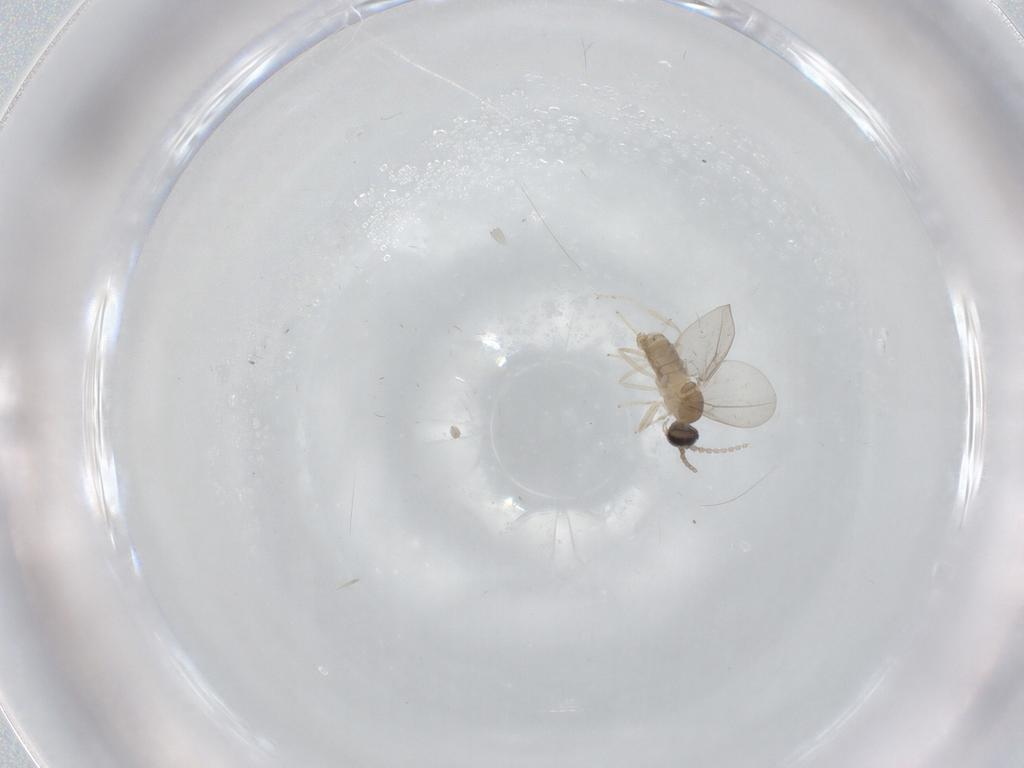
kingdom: Animalia
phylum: Arthropoda
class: Insecta
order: Diptera
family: Cecidomyiidae
